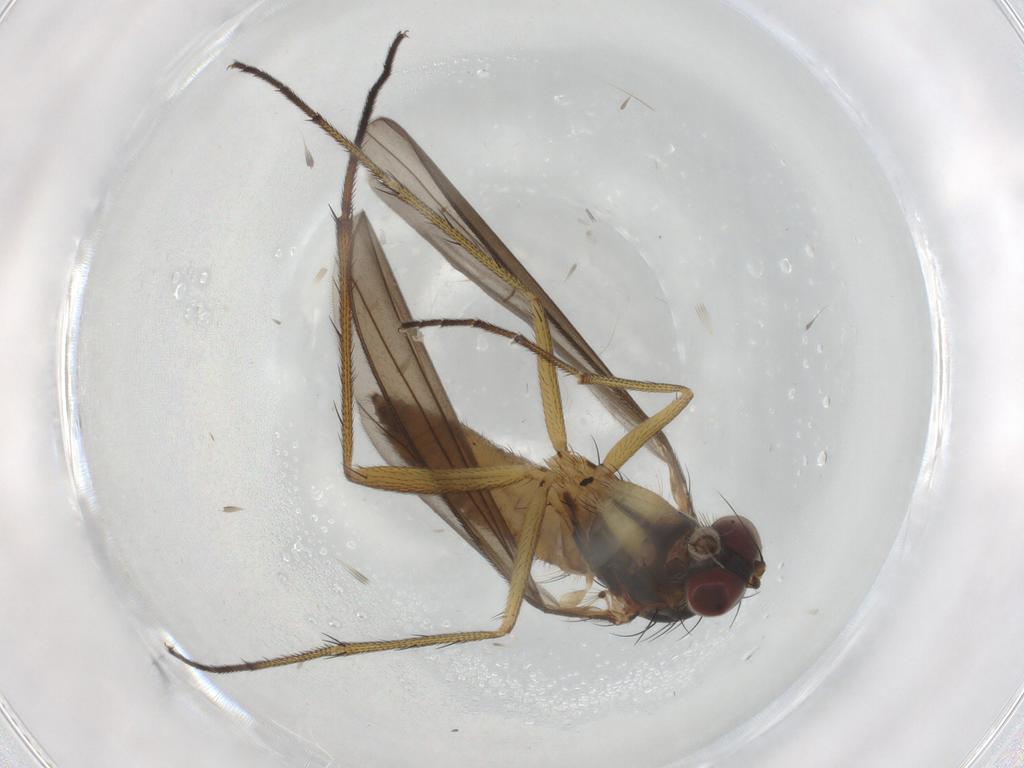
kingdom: Animalia
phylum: Arthropoda
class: Insecta
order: Diptera
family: Dolichopodidae
